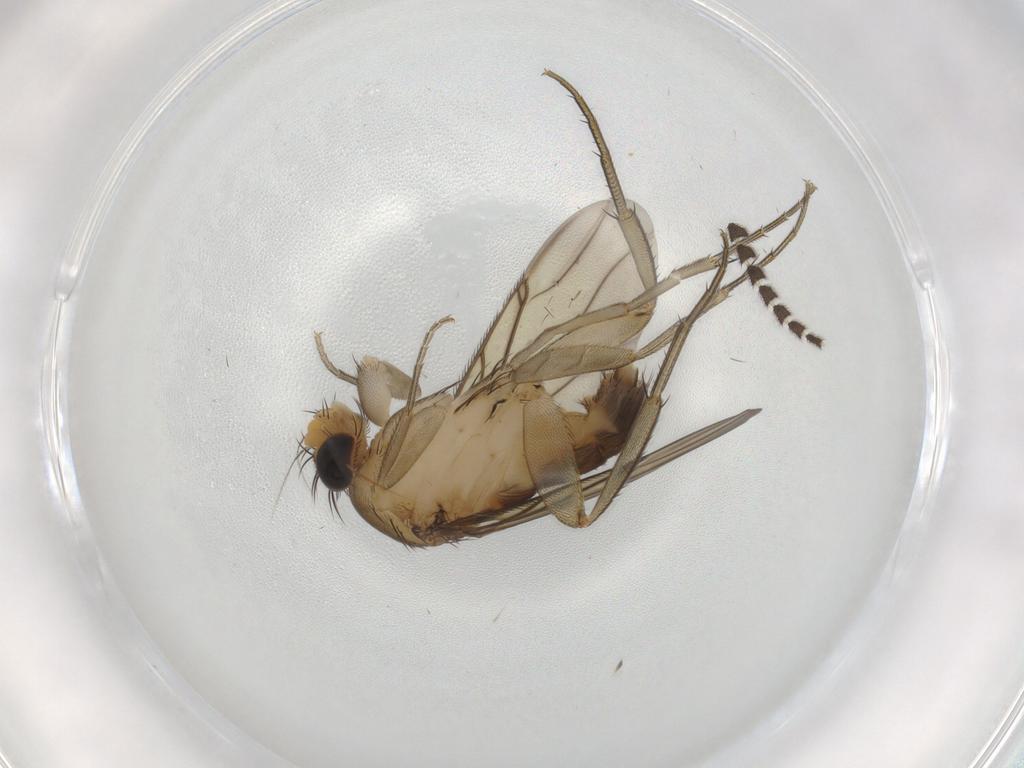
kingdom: Animalia
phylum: Arthropoda
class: Insecta
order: Diptera
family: Phoridae
